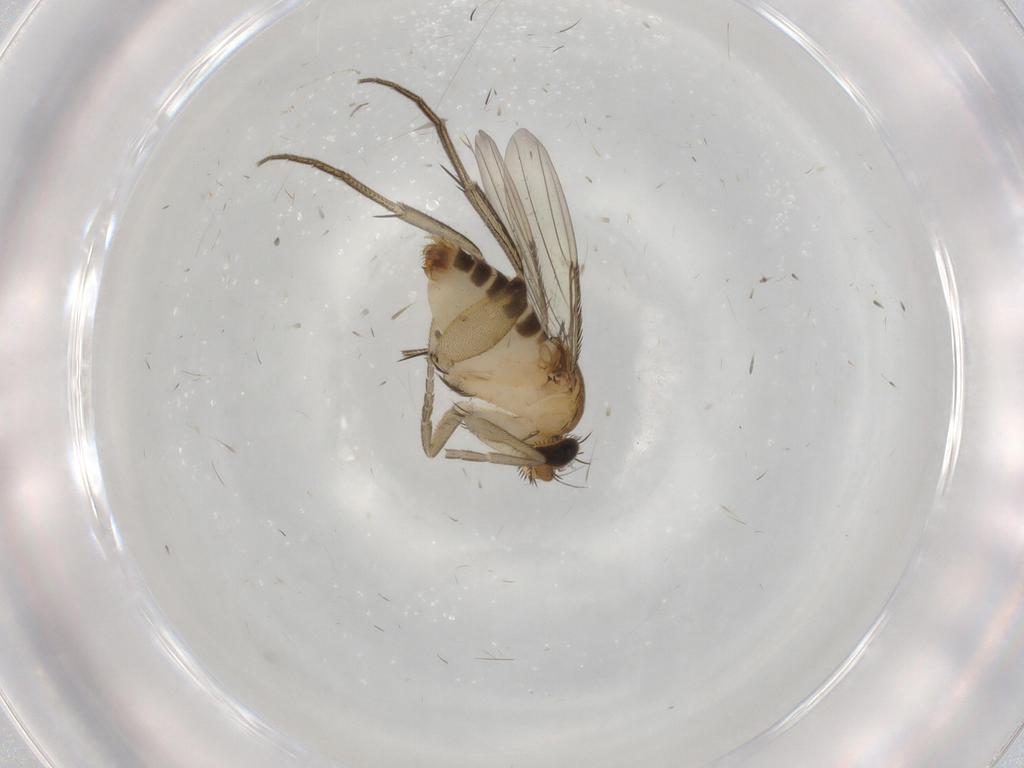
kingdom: Animalia
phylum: Arthropoda
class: Insecta
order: Diptera
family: Phoridae
